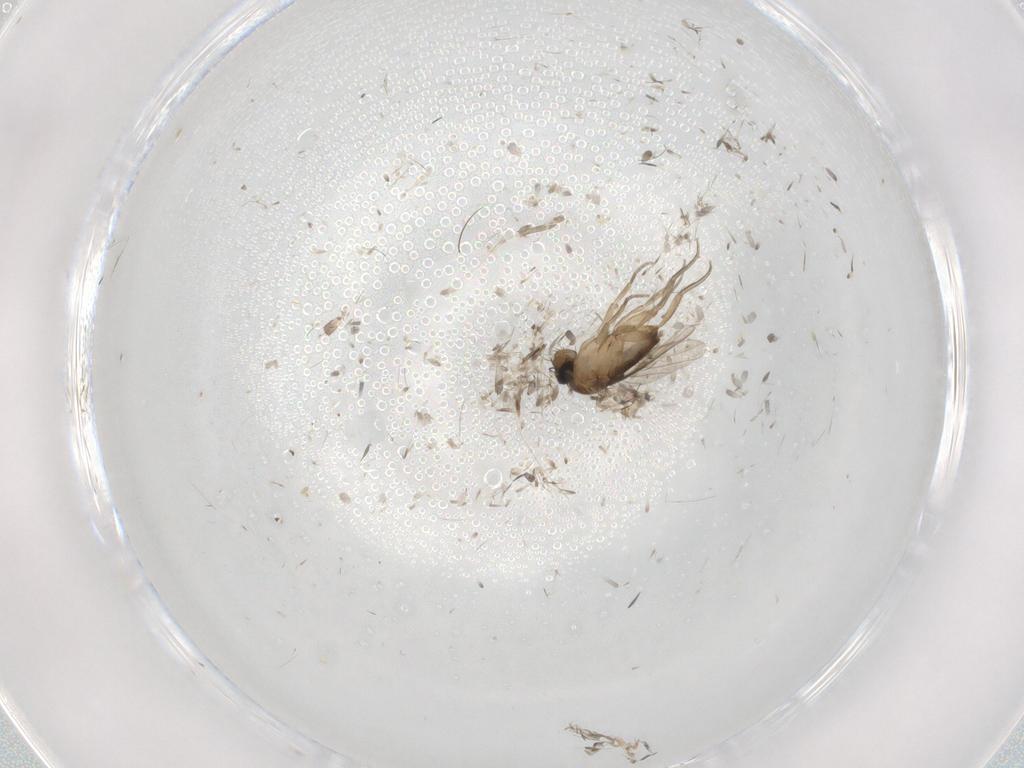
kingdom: Animalia
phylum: Arthropoda
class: Insecta
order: Diptera
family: Phoridae
